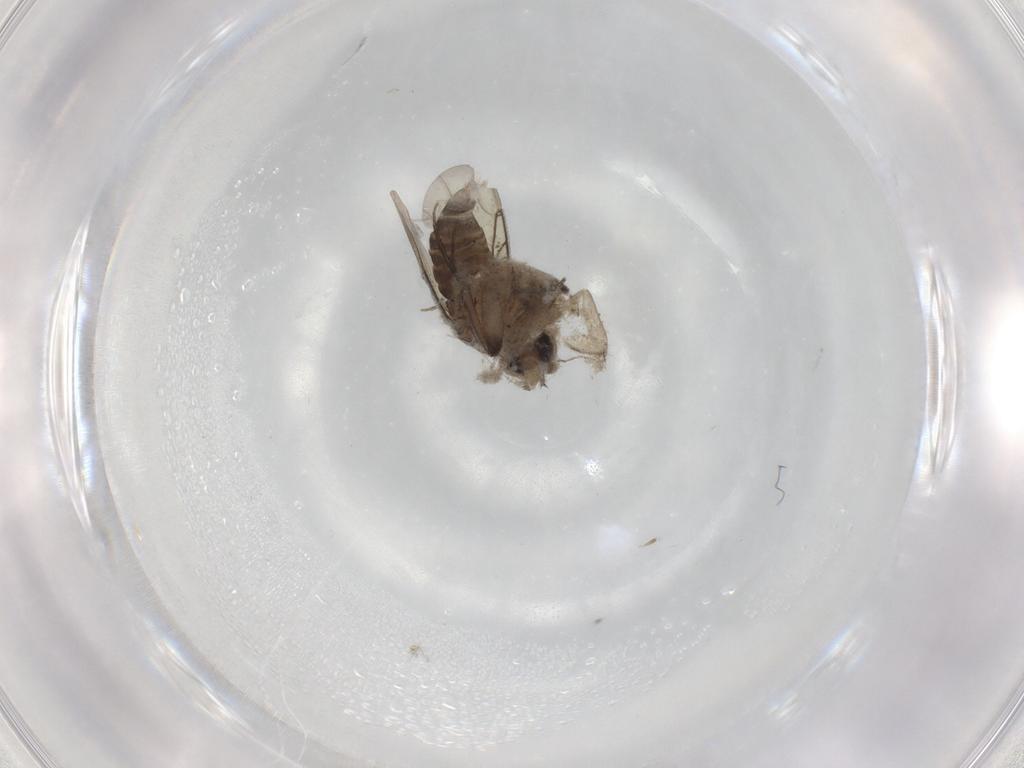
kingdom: Animalia
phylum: Arthropoda
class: Insecta
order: Diptera
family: Phoridae
